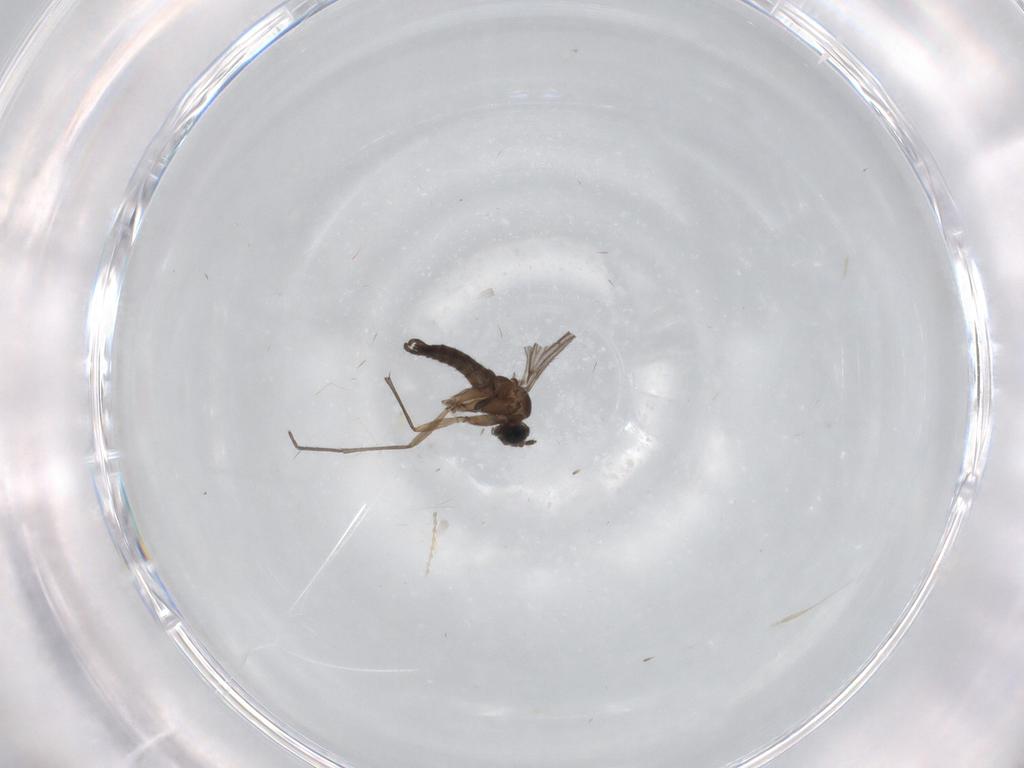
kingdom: Animalia
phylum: Arthropoda
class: Insecta
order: Diptera
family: Sciaridae
